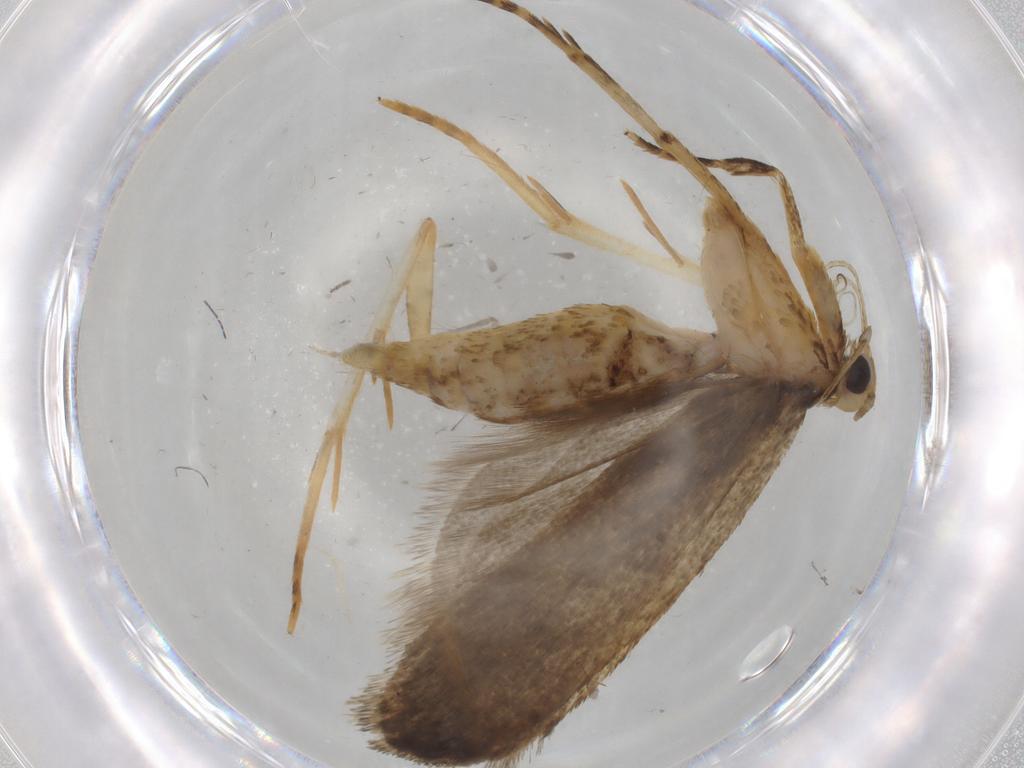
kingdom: Animalia
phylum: Arthropoda
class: Insecta
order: Lepidoptera
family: Autostichidae
